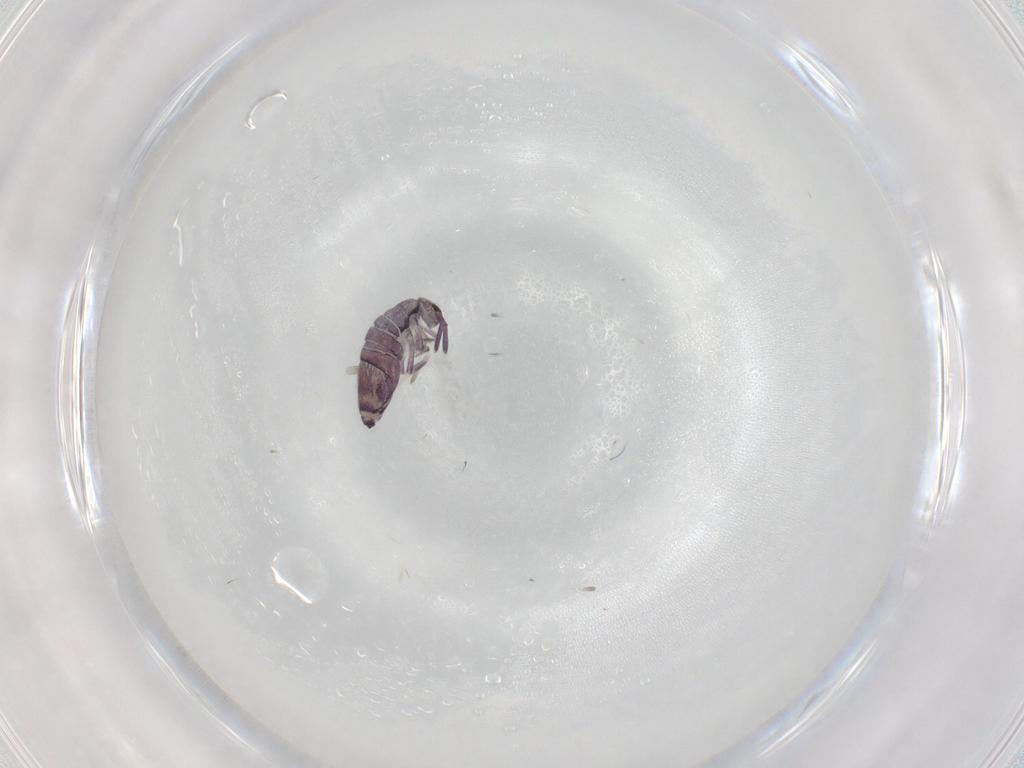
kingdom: Animalia
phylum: Arthropoda
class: Collembola
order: Entomobryomorpha
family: Entomobryidae
